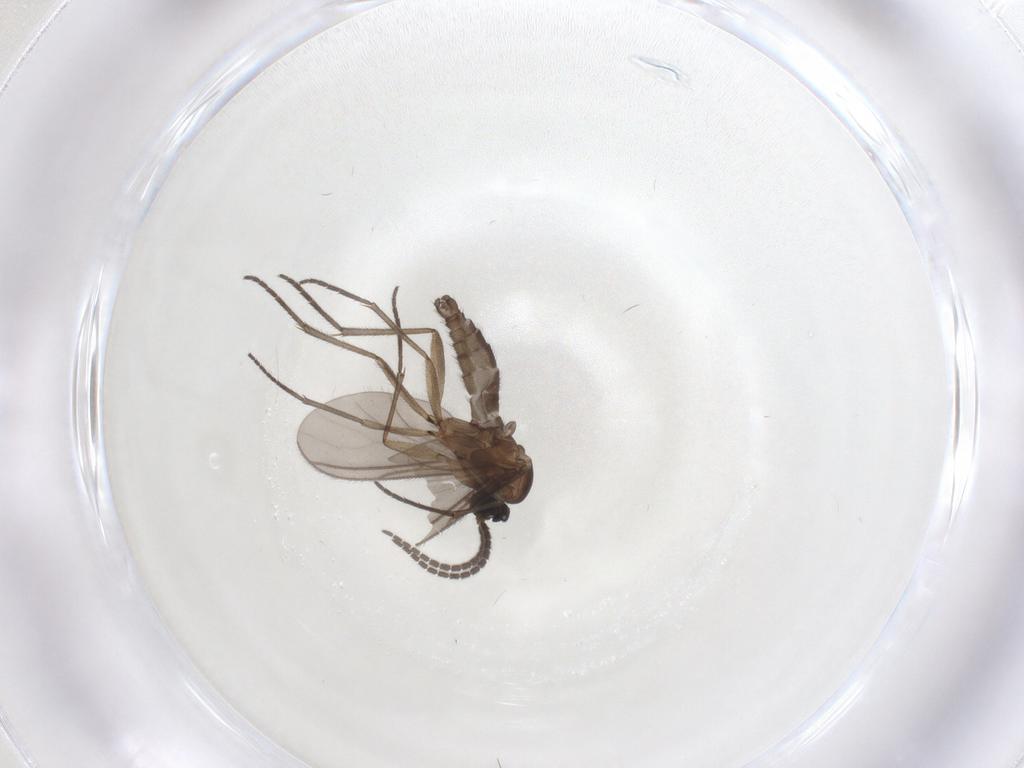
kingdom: Animalia
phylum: Arthropoda
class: Insecta
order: Diptera
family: Sciaridae
